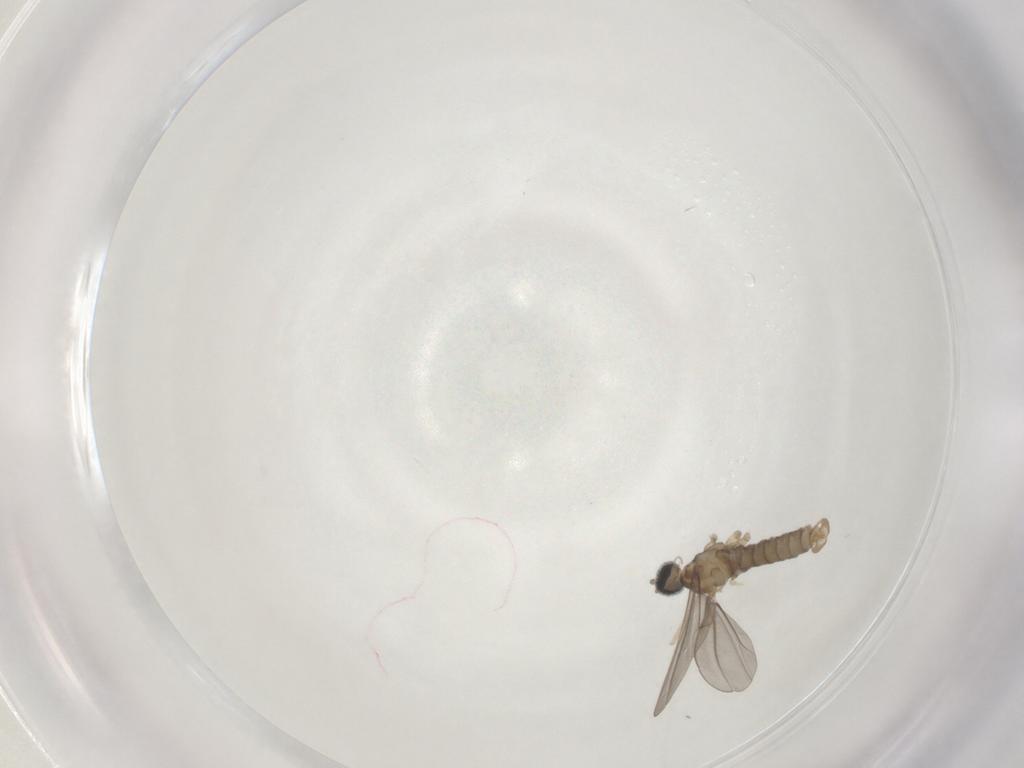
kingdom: Animalia
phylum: Arthropoda
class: Insecta
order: Diptera
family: Cecidomyiidae
